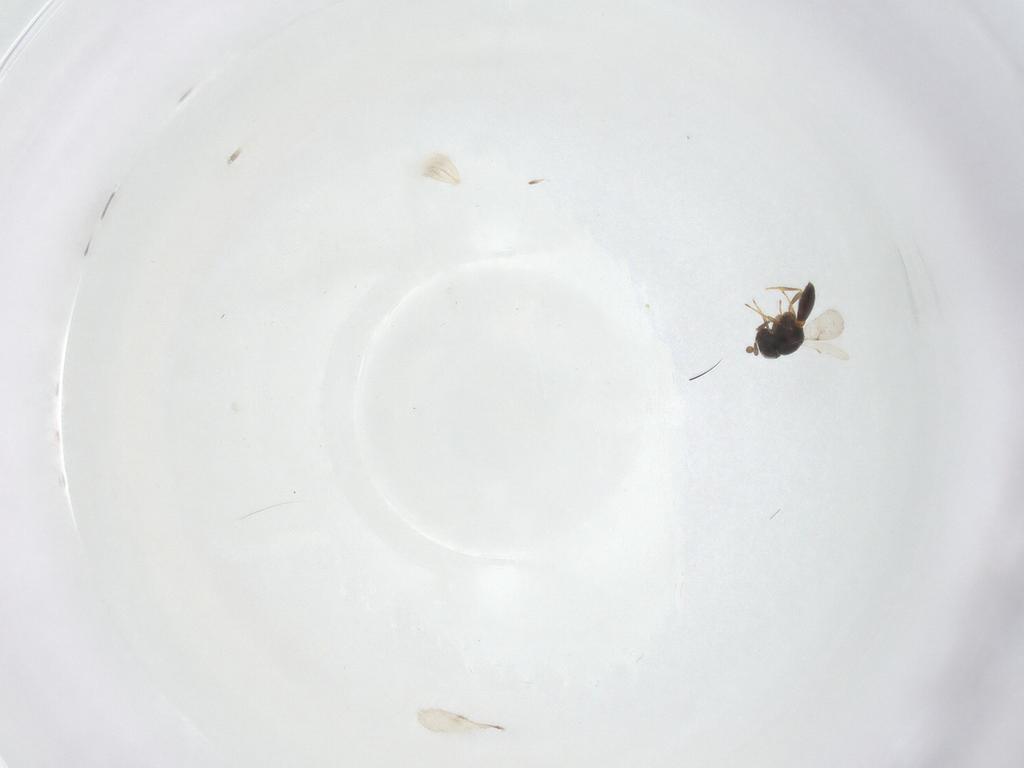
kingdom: Animalia
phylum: Arthropoda
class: Insecta
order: Hymenoptera
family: Scelionidae
